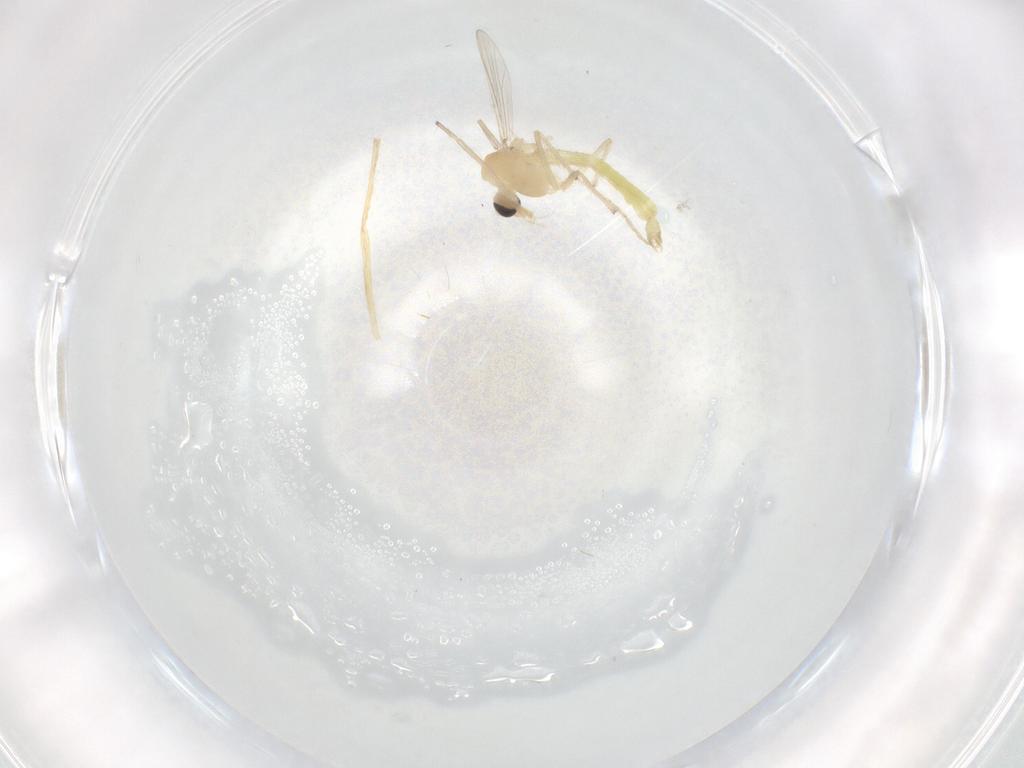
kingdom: Animalia
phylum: Arthropoda
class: Insecta
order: Diptera
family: Chironomidae
